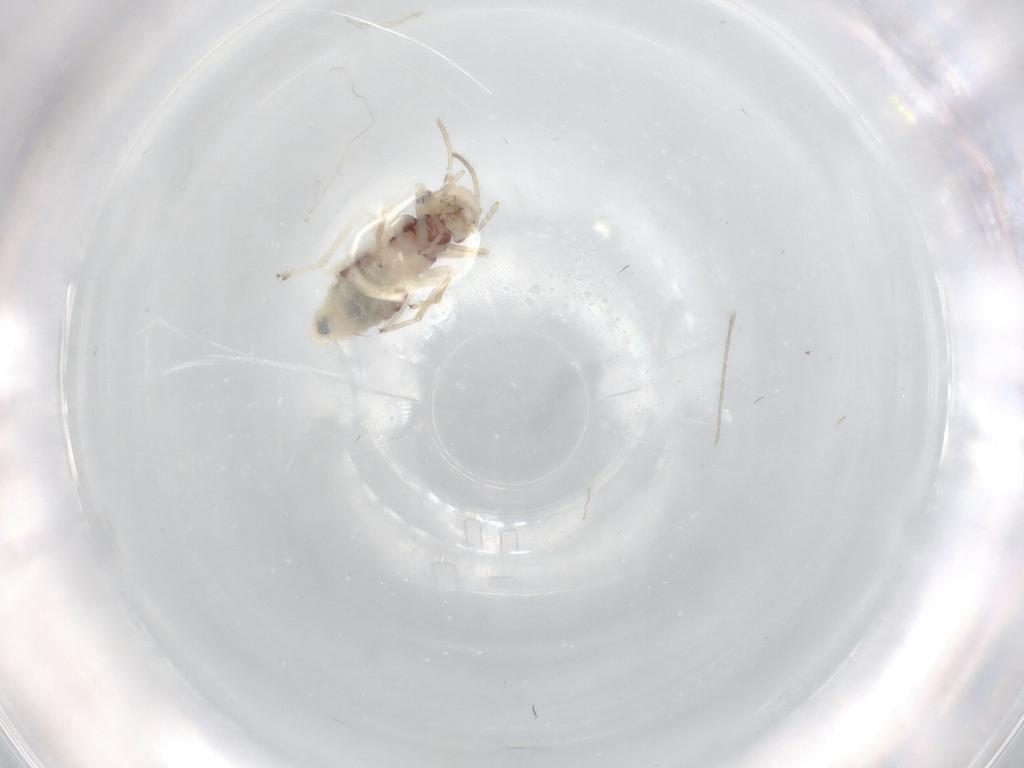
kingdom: Animalia
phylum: Arthropoda
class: Insecta
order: Psocodea
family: Caeciliusidae
